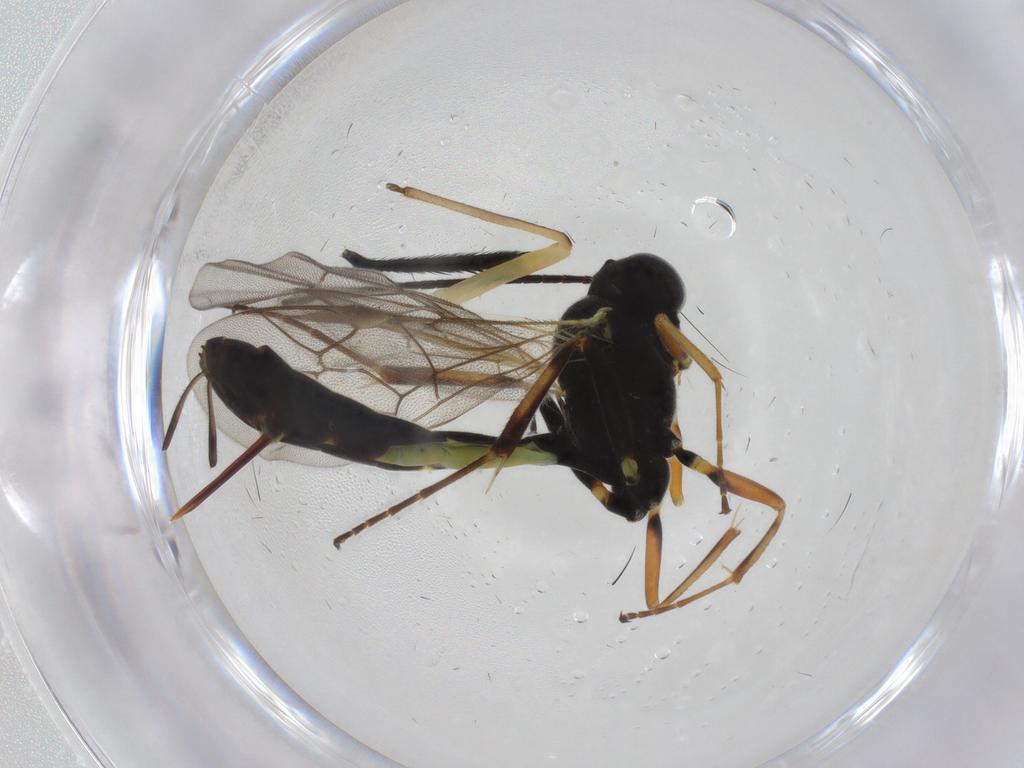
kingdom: Animalia
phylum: Arthropoda
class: Insecta
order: Hymenoptera
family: Ichneumonidae
